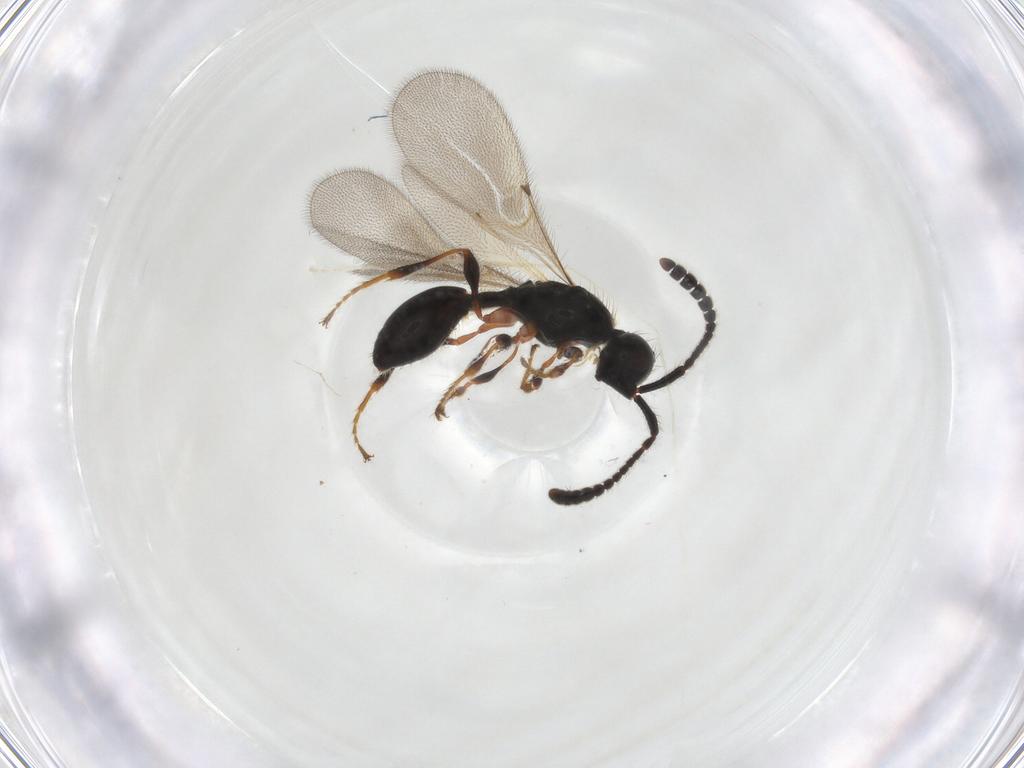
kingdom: Animalia
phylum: Arthropoda
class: Insecta
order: Hymenoptera
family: Diapriidae
